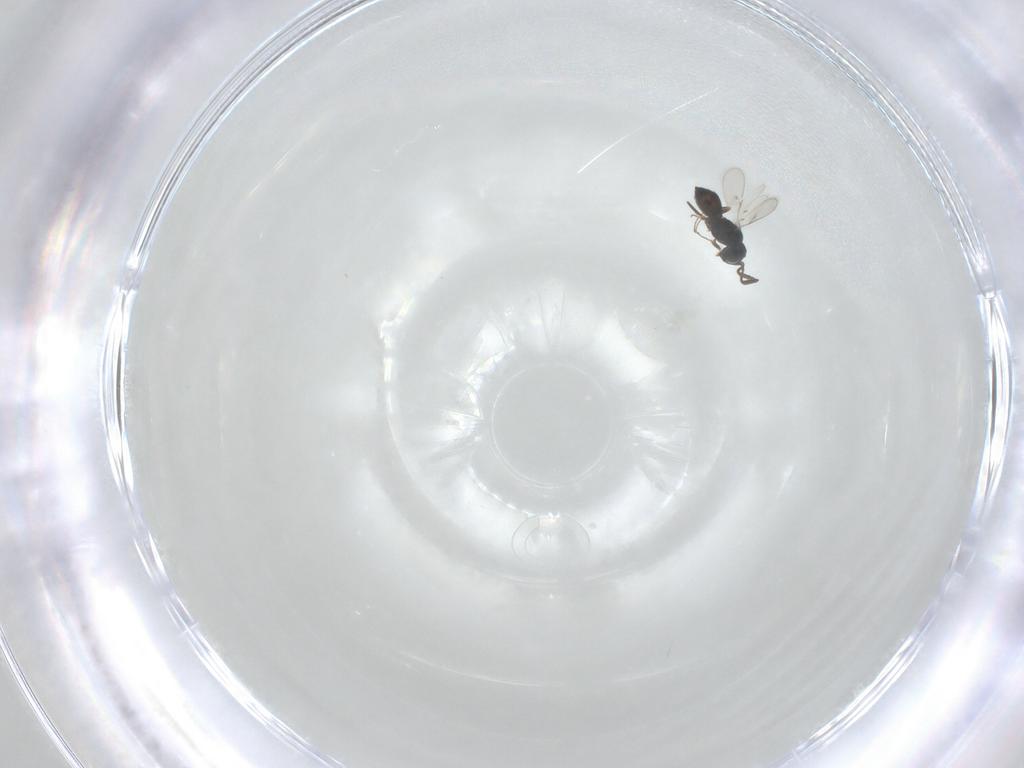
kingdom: Animalia
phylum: Arthropoda
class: Insecta
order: Hymenoptera
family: Scelionidae
